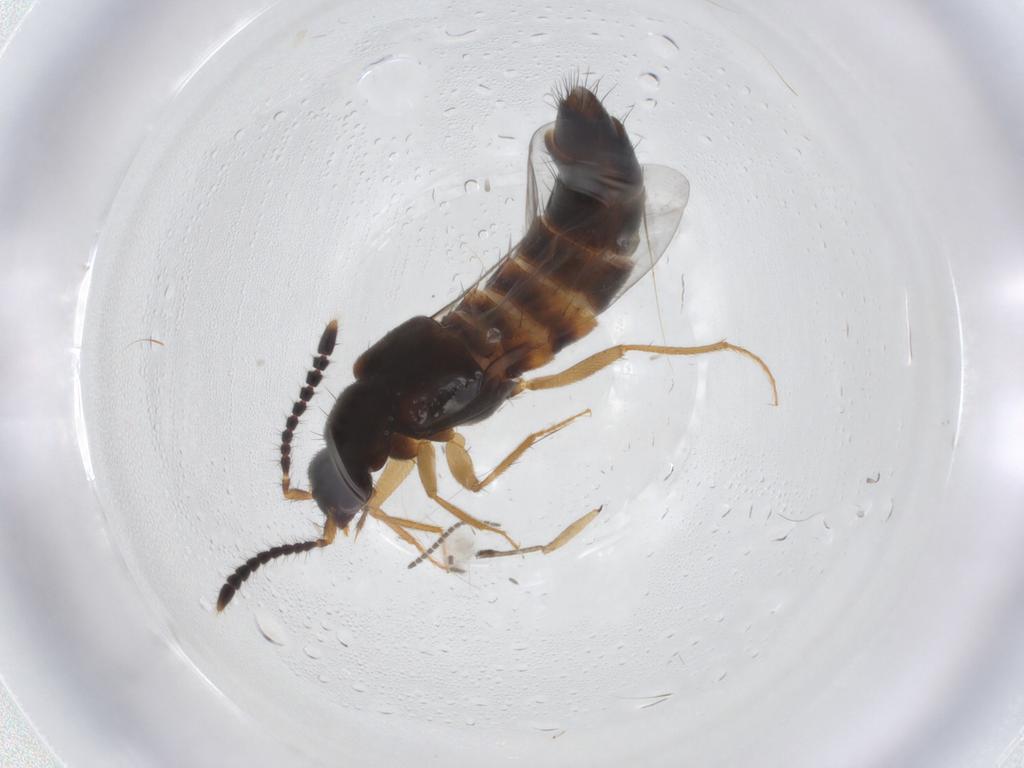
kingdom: Animalia
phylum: Arthropoda
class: Insecta
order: Coleoptera
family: Staphylinidae
